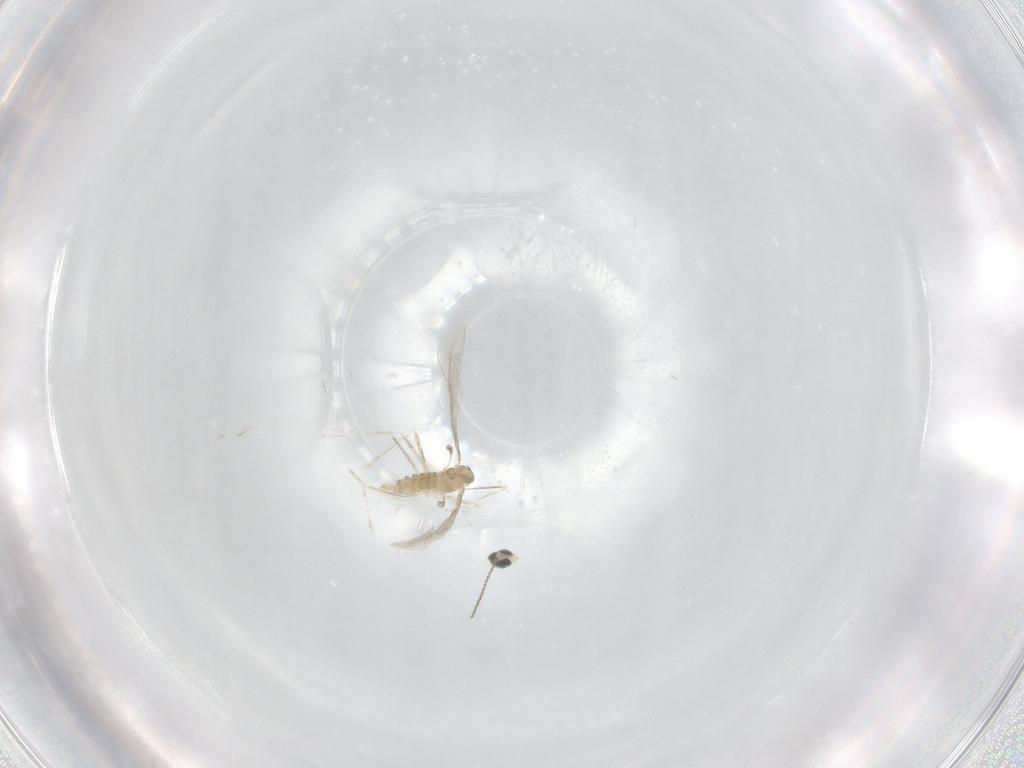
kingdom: Animalia
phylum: Arthropoda
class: Insecta
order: Diptera
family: Cecidomyiidae
